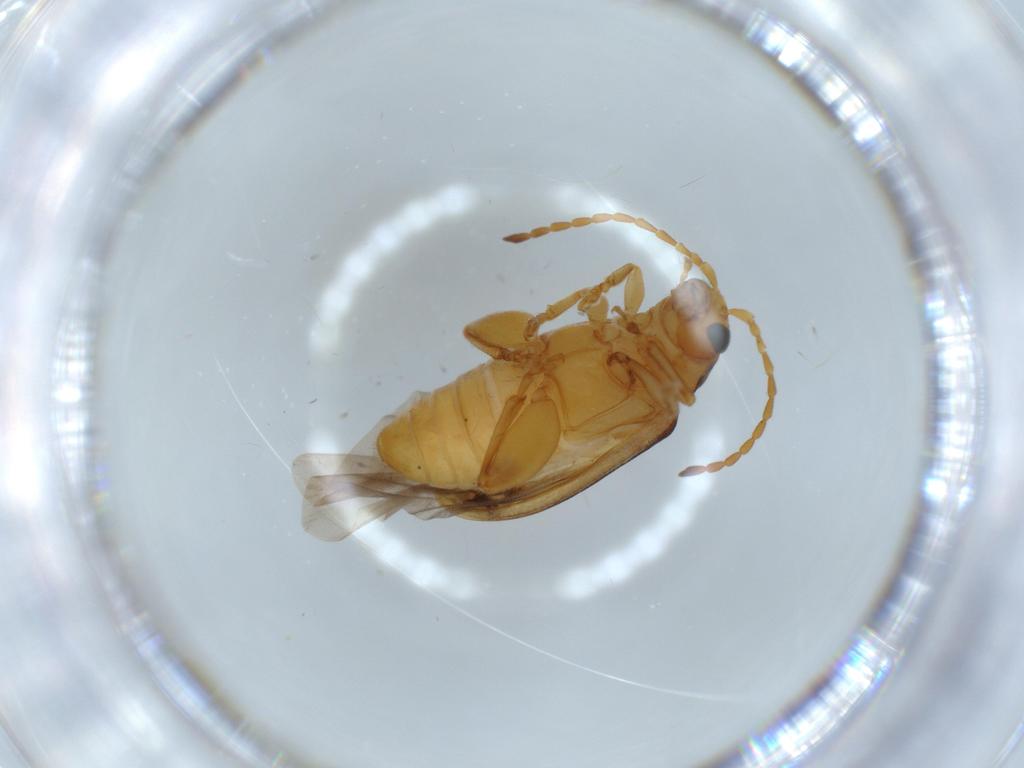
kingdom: Animalia
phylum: Arthropoda
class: Insecta
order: Coleoptera
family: Chrysomelidae
